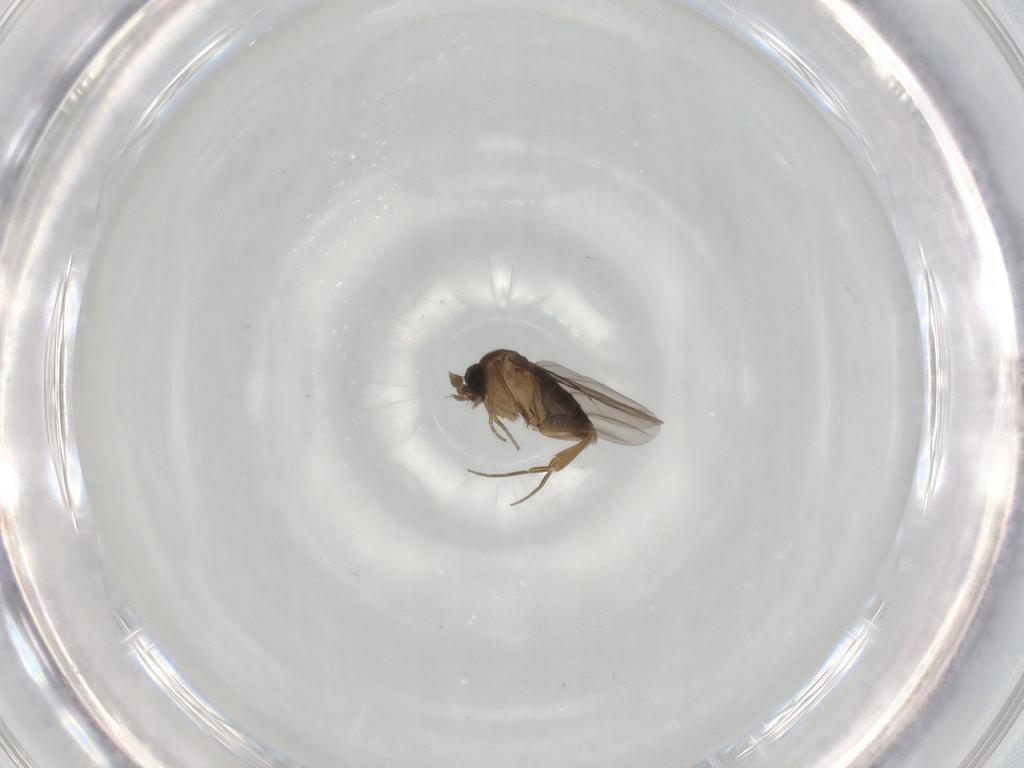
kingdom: Animalia
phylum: Arthropoda
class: Insecta
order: Diptera
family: Phoridae
